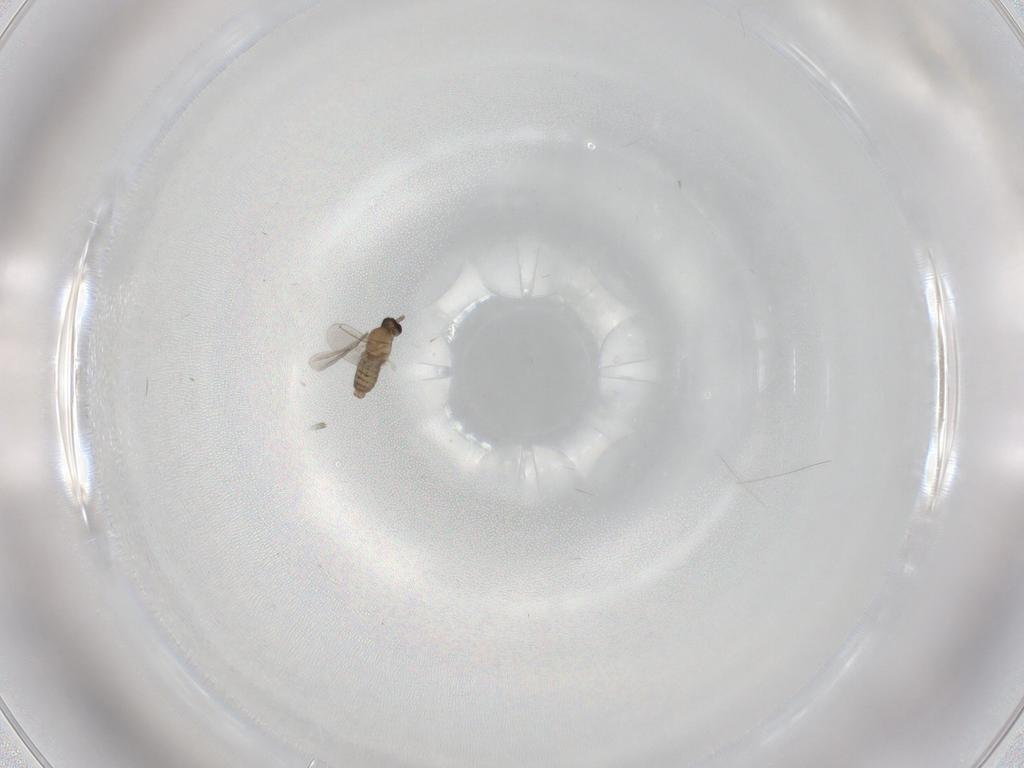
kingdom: Animalia
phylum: Arthropoda
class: Insecta
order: Diptera
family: Cecidomyiidae
